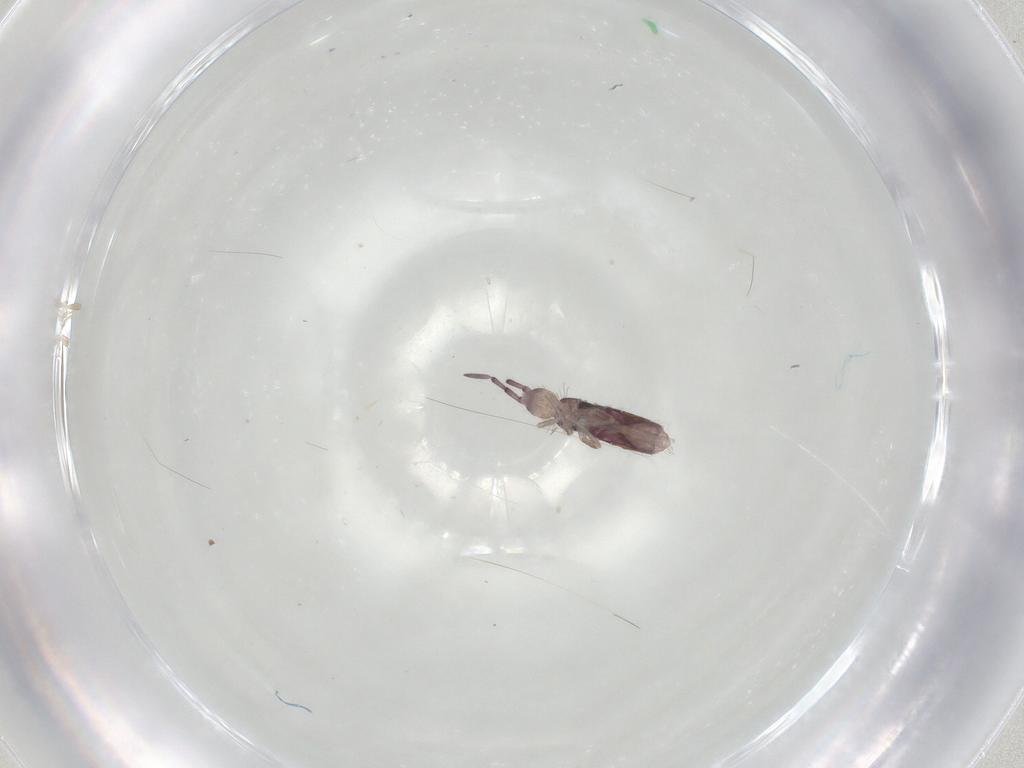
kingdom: Animalia
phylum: Arthropoda
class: Collembola
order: Entomobryomorpha
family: Entomobryidae
